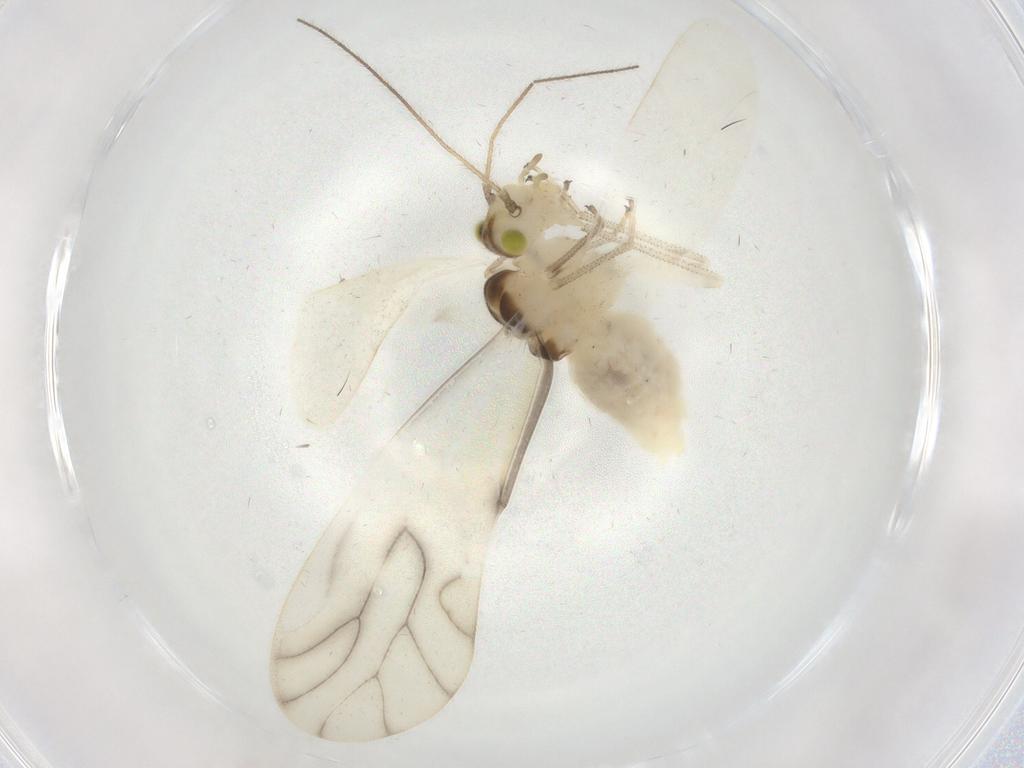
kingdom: Animalia
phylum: Arthropoda
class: Insecta
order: Psocodea
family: Caeciliusidae
